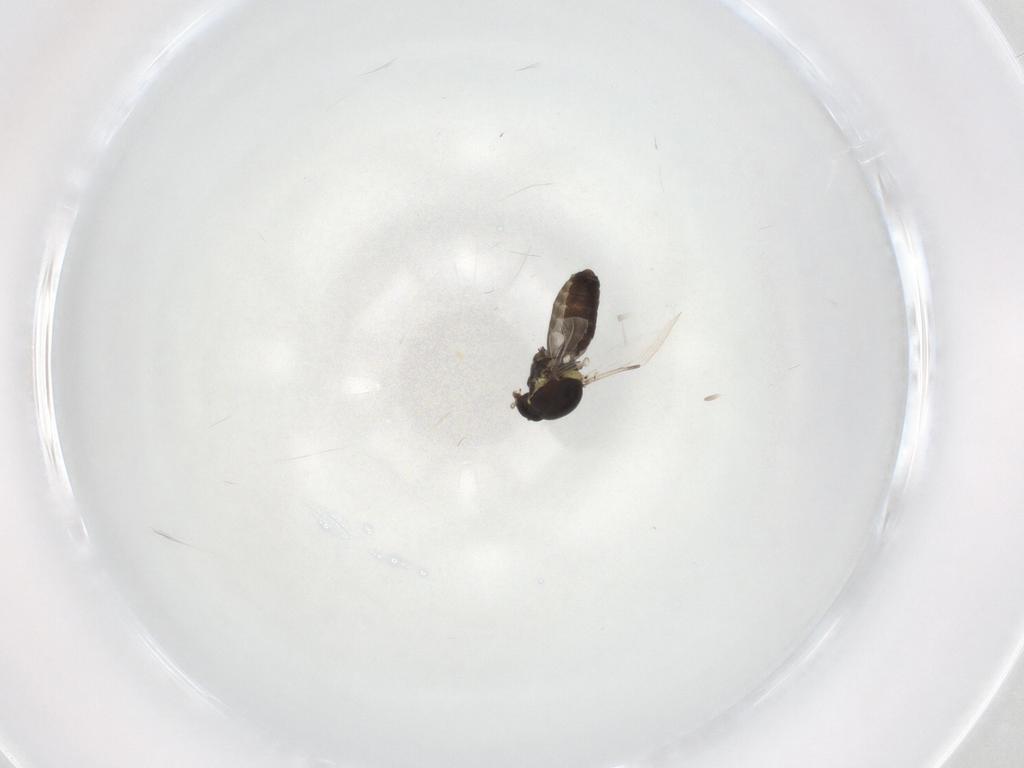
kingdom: Animalia
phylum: Arthropoda
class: Insecta
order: Diptera
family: Ceratopogonidae
